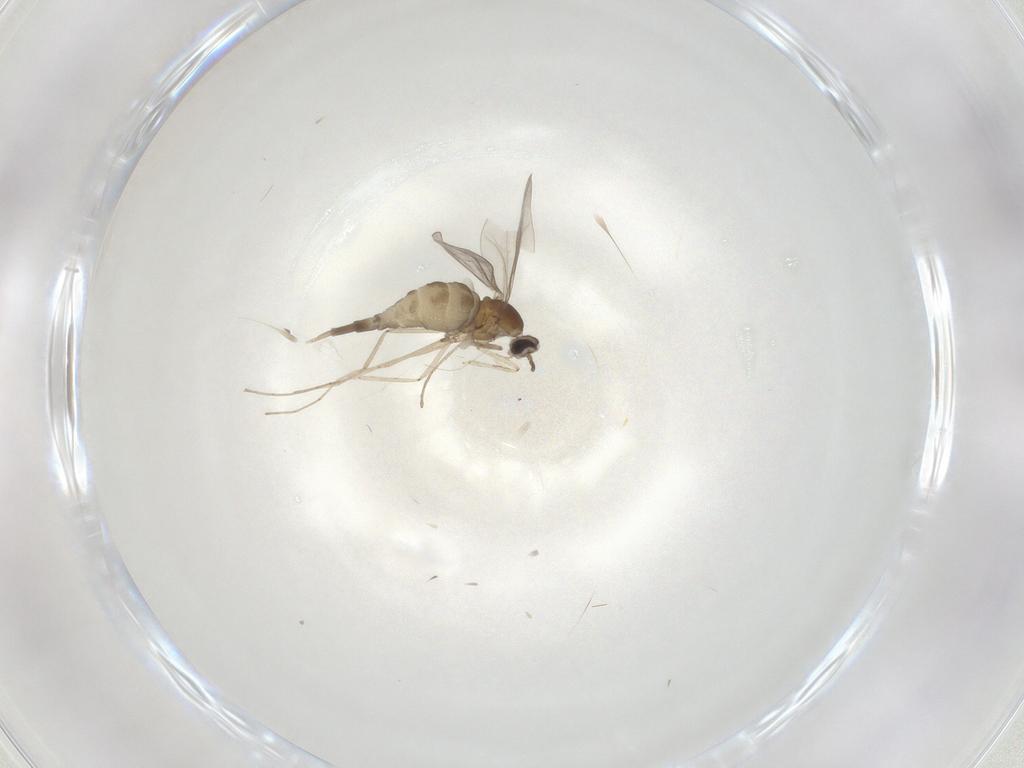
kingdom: Animalia
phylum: Arthropoda
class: Insecta
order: Diptera
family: Cecidomyiidae
